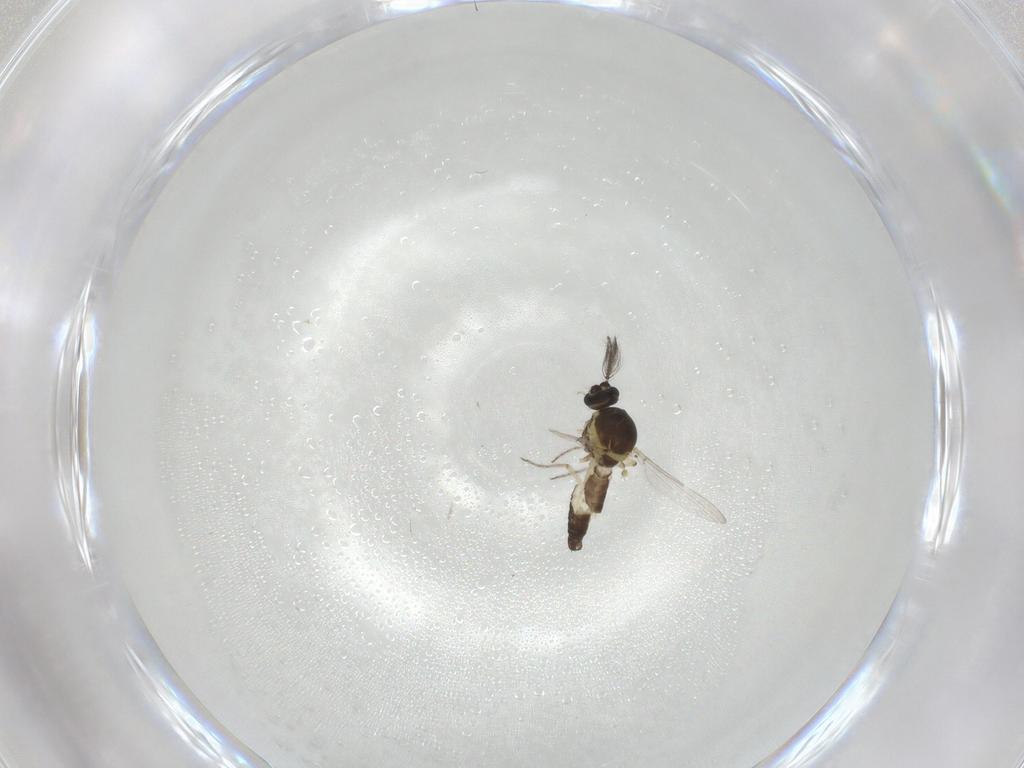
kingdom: Animalia
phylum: Arthropoda
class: Insecta
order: Diptera
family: Ceratopogonidae
